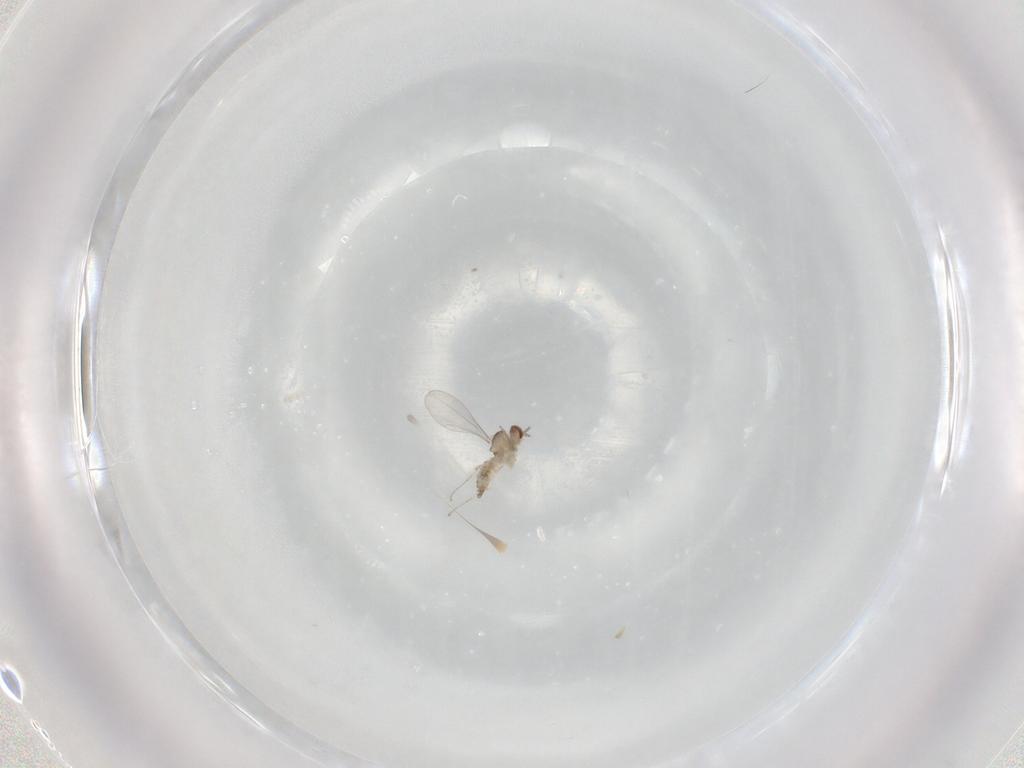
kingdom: Animalia
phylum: Arthropoda
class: Insecta
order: Diptera
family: Cecidomyiidae
